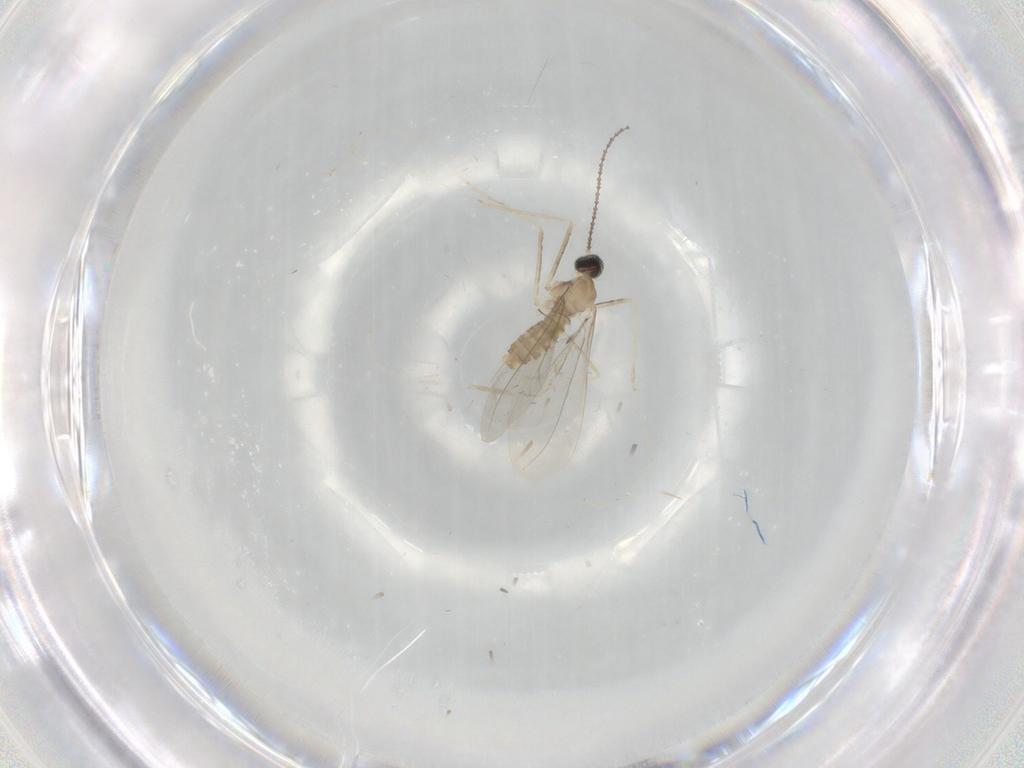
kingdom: Animalia
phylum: Arthropoda
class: Insecta
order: Diptera
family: Cecidomyiidae
